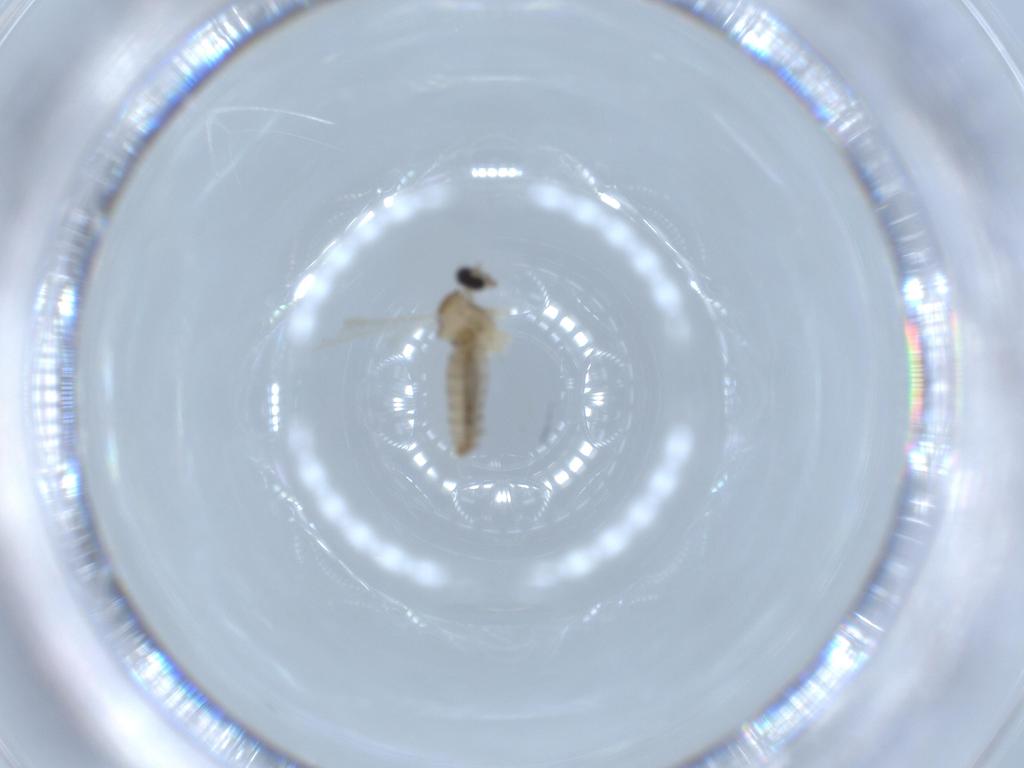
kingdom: Animalia
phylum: Arthropoda
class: Insecta
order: Diptera
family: Cecidomyiidae
